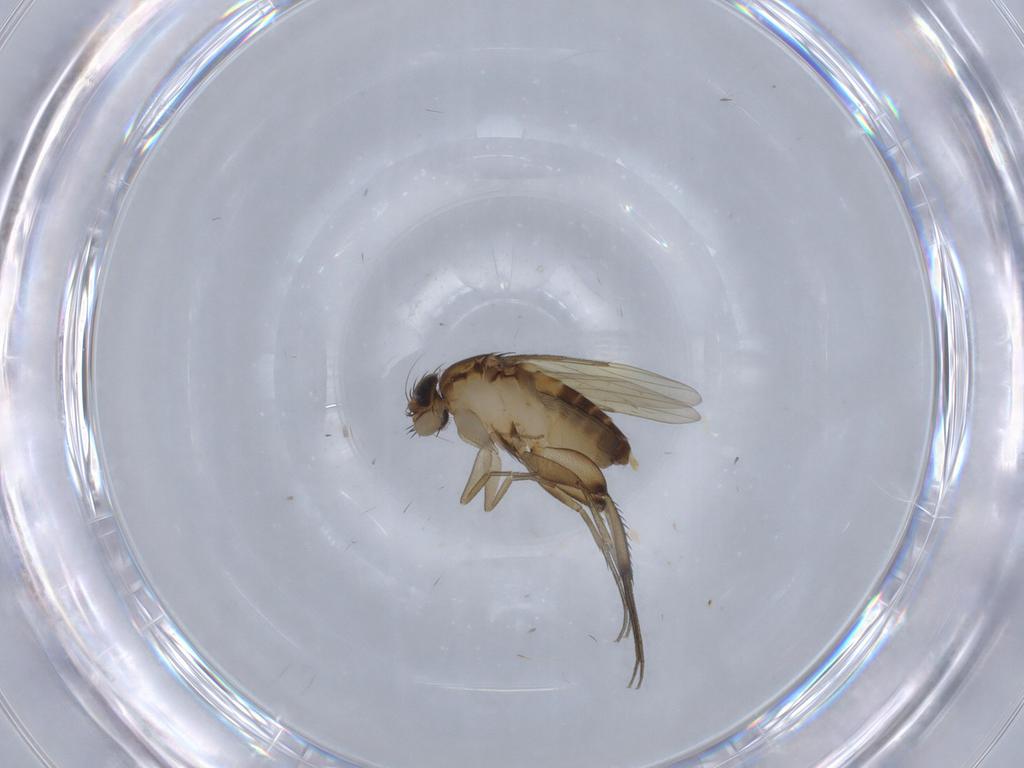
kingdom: Animalia
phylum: Arthropoda
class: Insecta
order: Diptera
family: Phoridae
